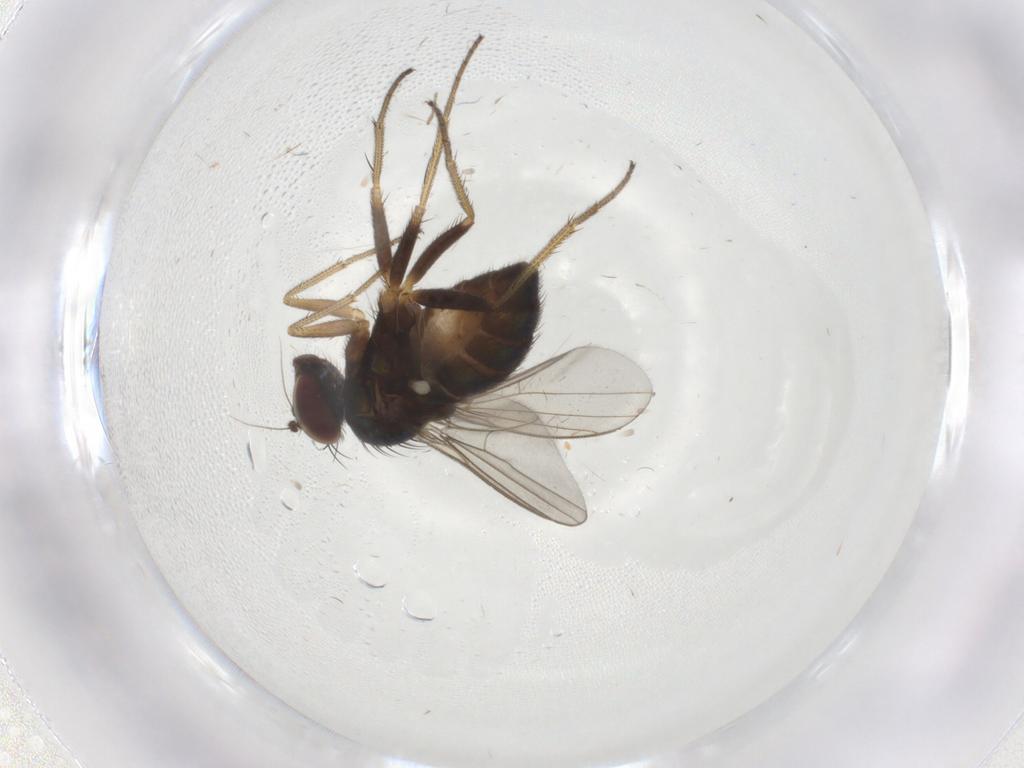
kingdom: Animalia
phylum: Arthropoda
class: Insecta
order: Diptera
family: Dolichopodidae
